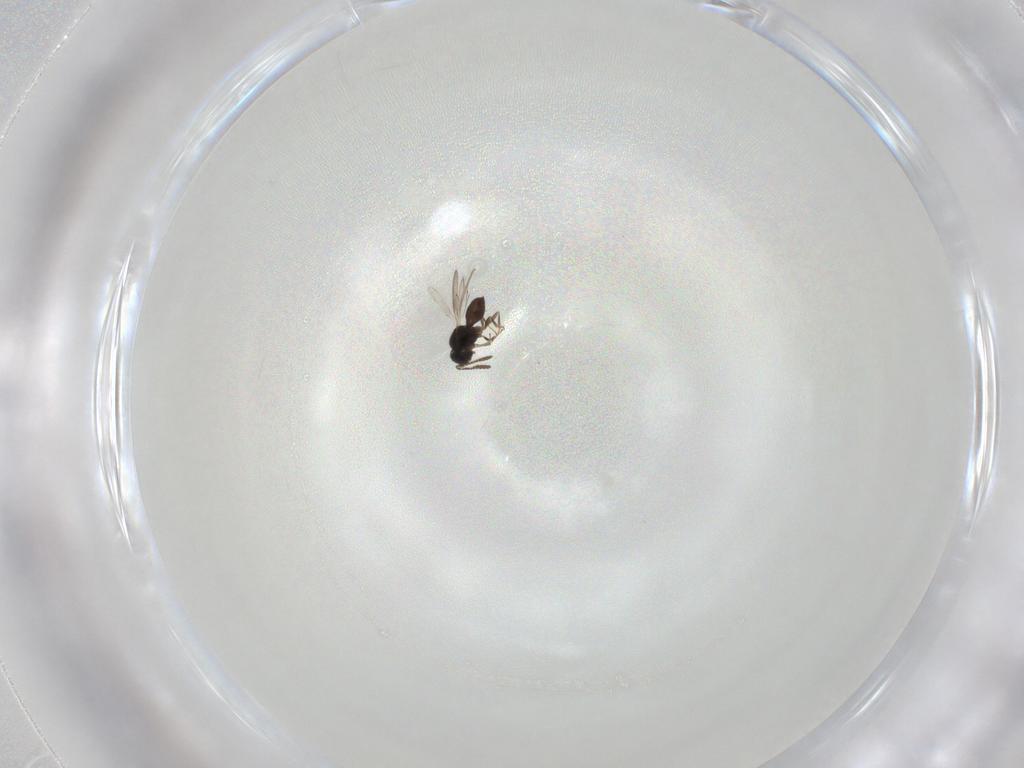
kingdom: Animalia
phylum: Arthropoda
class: Insecta
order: Hymenoptera
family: Scelionidae
